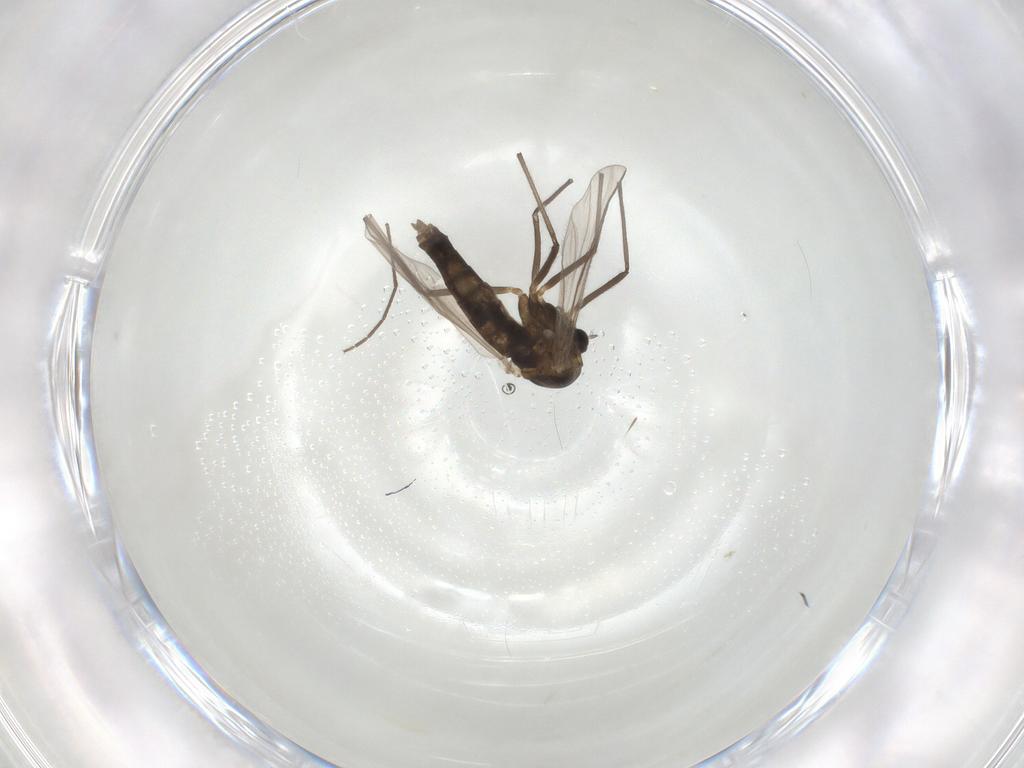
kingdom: Animalia
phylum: Arthropoda
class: Insecta
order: Diptera
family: Chironomidae
